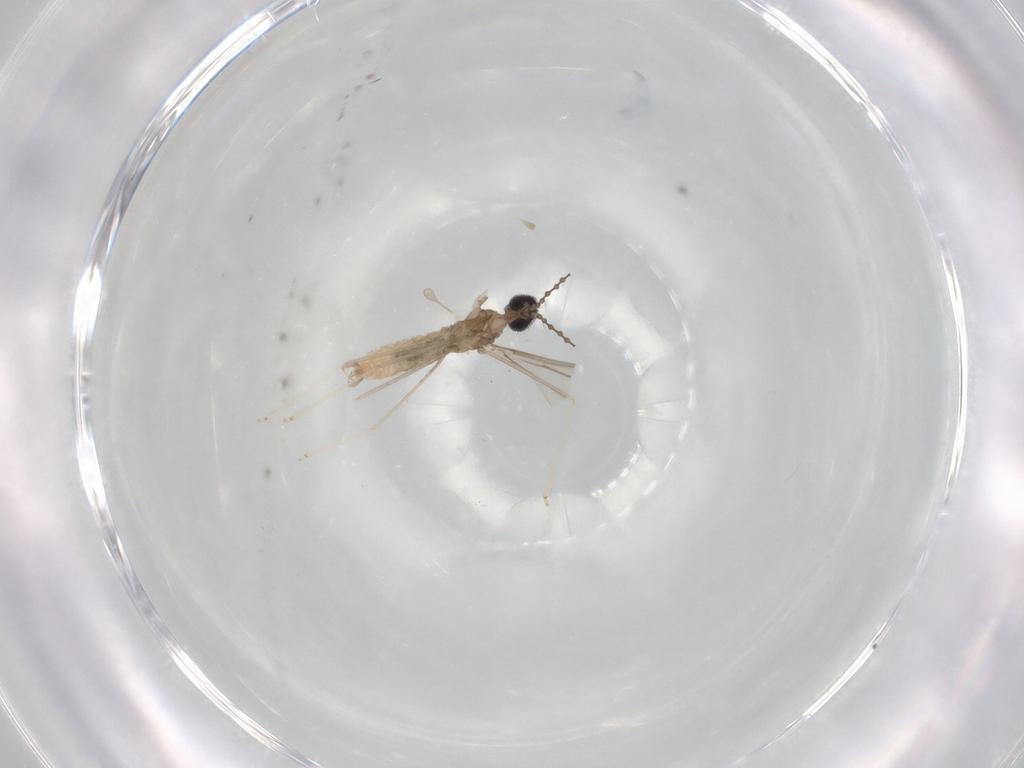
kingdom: Animalia
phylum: Arthropoda
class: Insecta
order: Diptera
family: Cecidomyiidae
